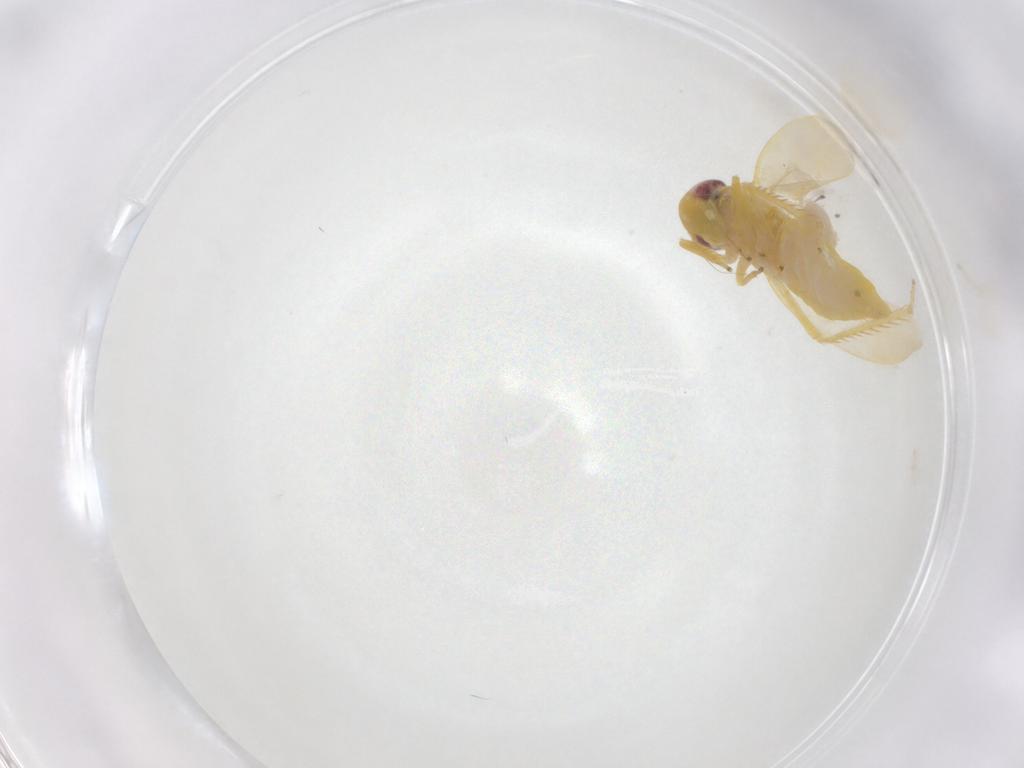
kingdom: Animalia
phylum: Arthropoda
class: Insecta
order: Hemiptera
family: Cicadellidae
